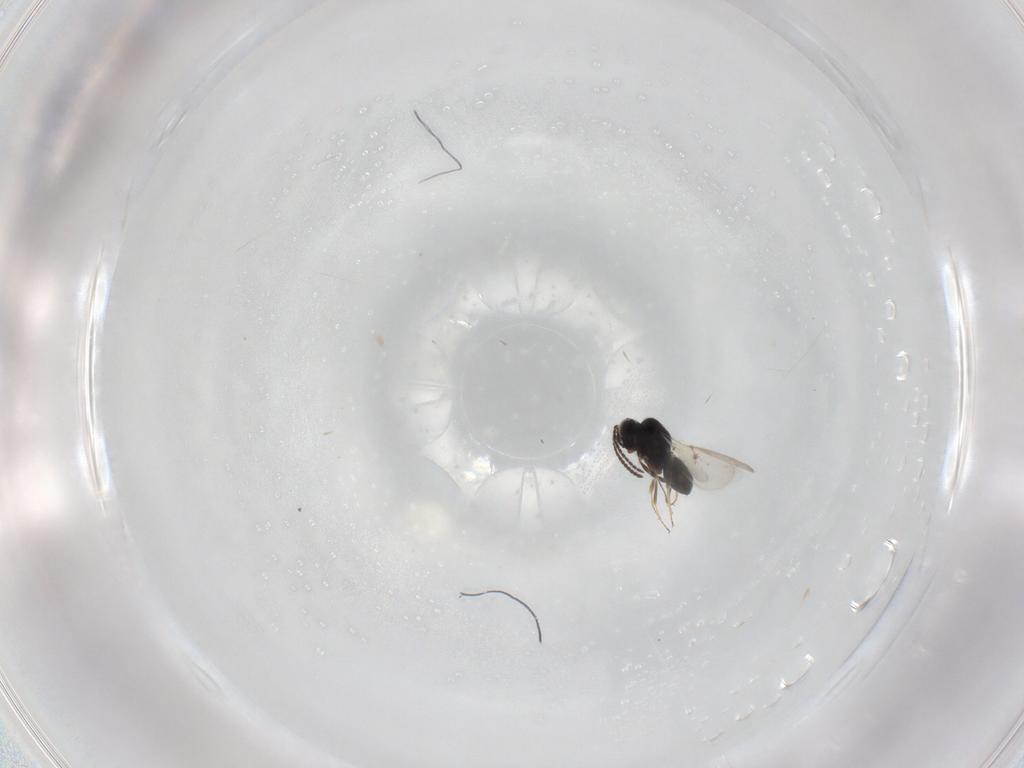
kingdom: Animalia
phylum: Arthropoda
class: Insecta
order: Hymenoptera
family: Scelionidae
